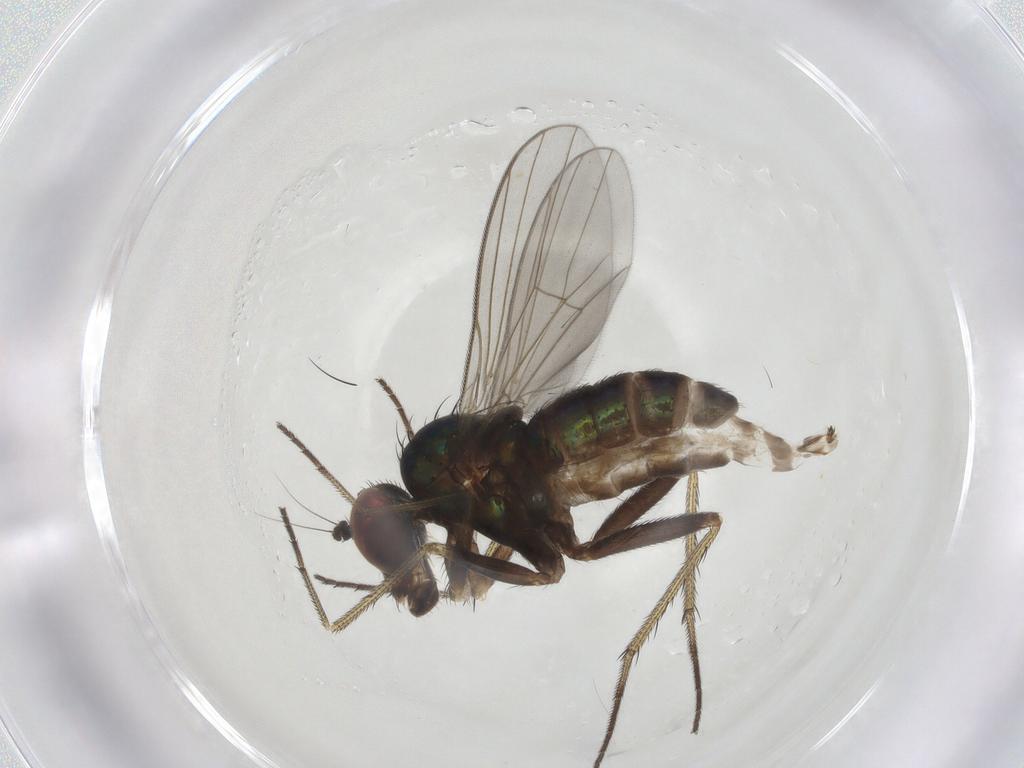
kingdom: Animalia
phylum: Arthropoda
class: Insecta
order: Diptera
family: Dolichopodidae
